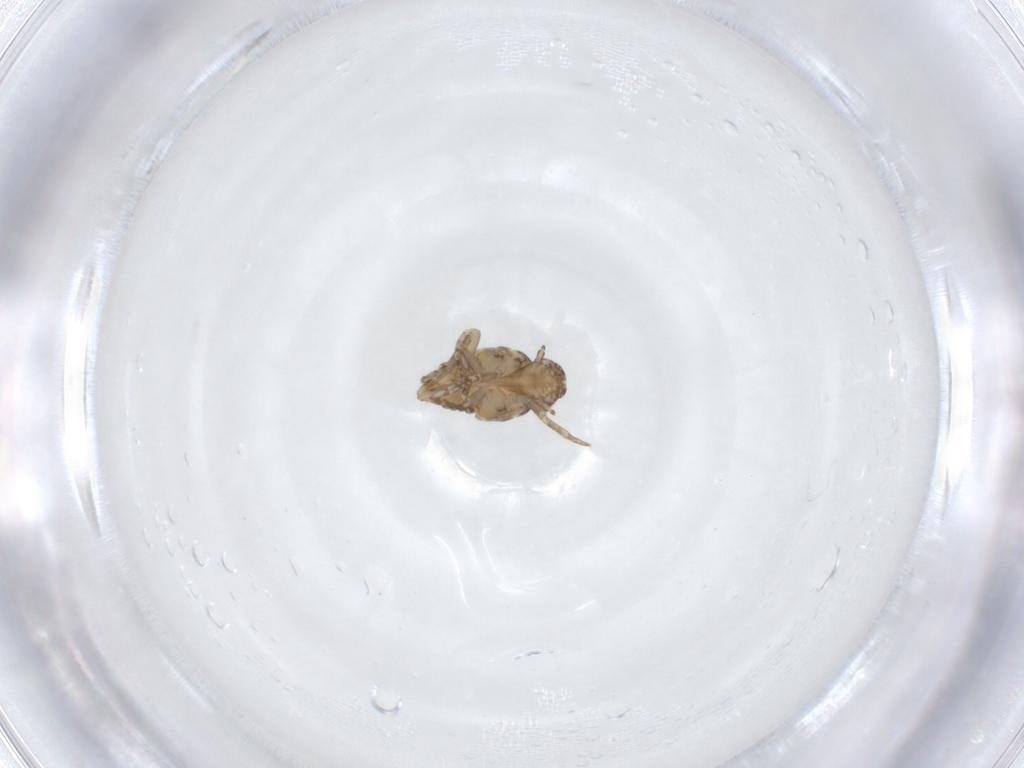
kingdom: Animalia
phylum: Arthropoda
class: Insecta
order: Hemiptera
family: Flatidae
